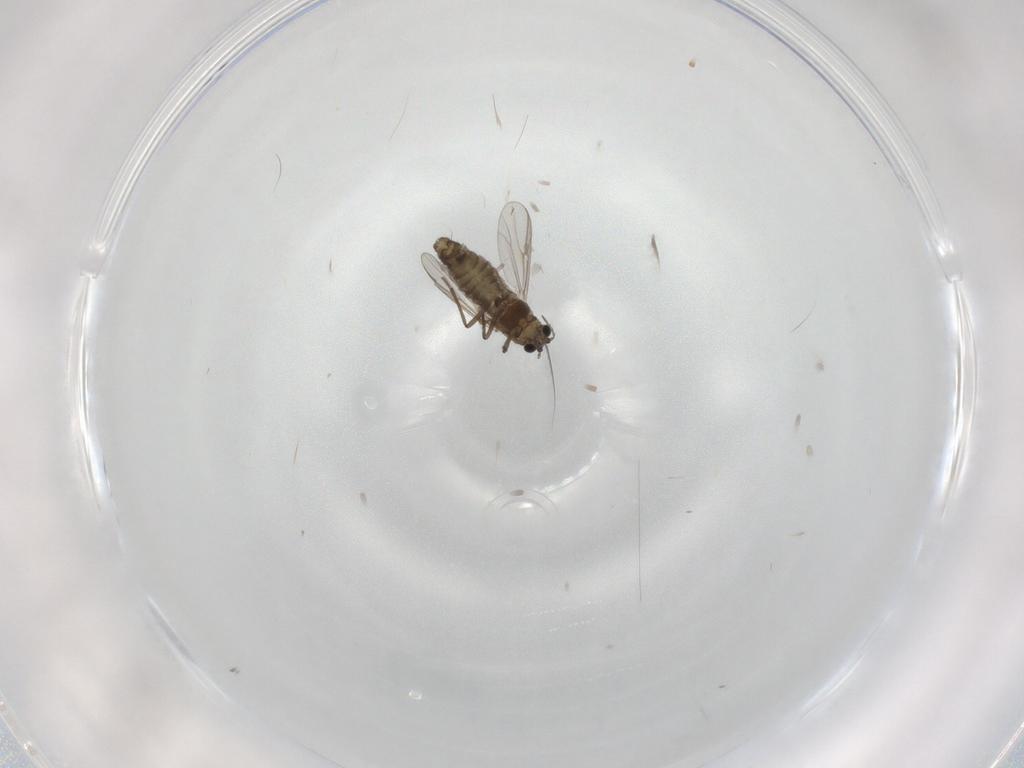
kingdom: Animalia
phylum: Arthropoda
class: Insecta
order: Diptera
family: Chironomidae
